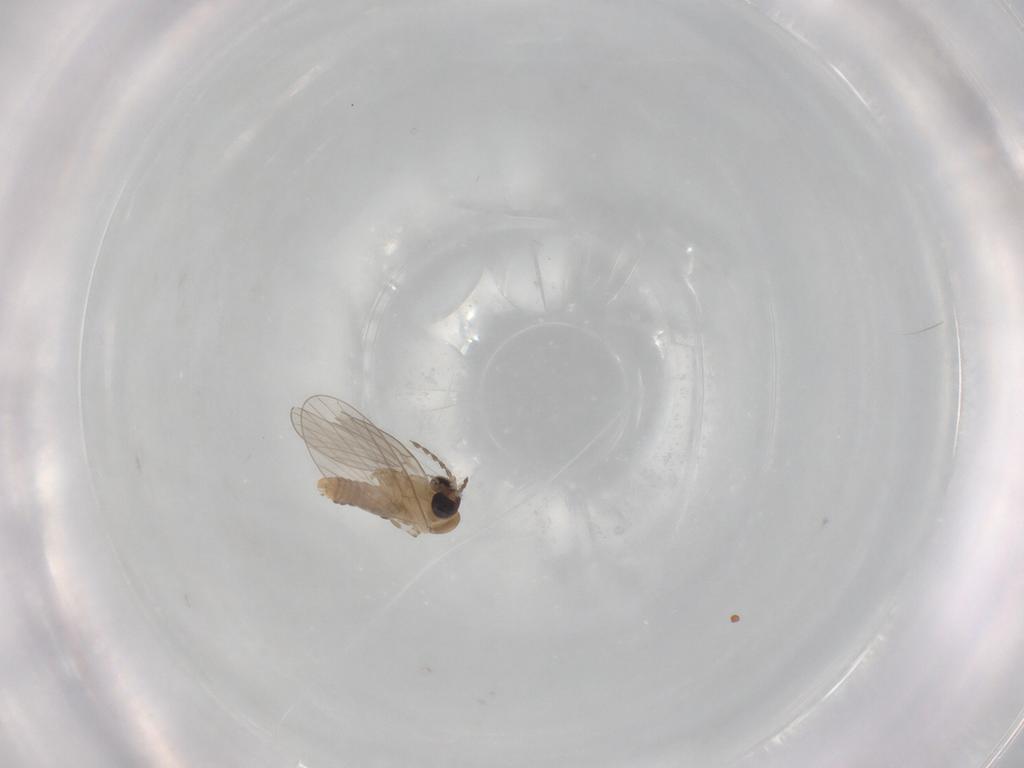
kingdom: Animalia
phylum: Arthropoda
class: Insecta
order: Diptera
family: Psychodidae
